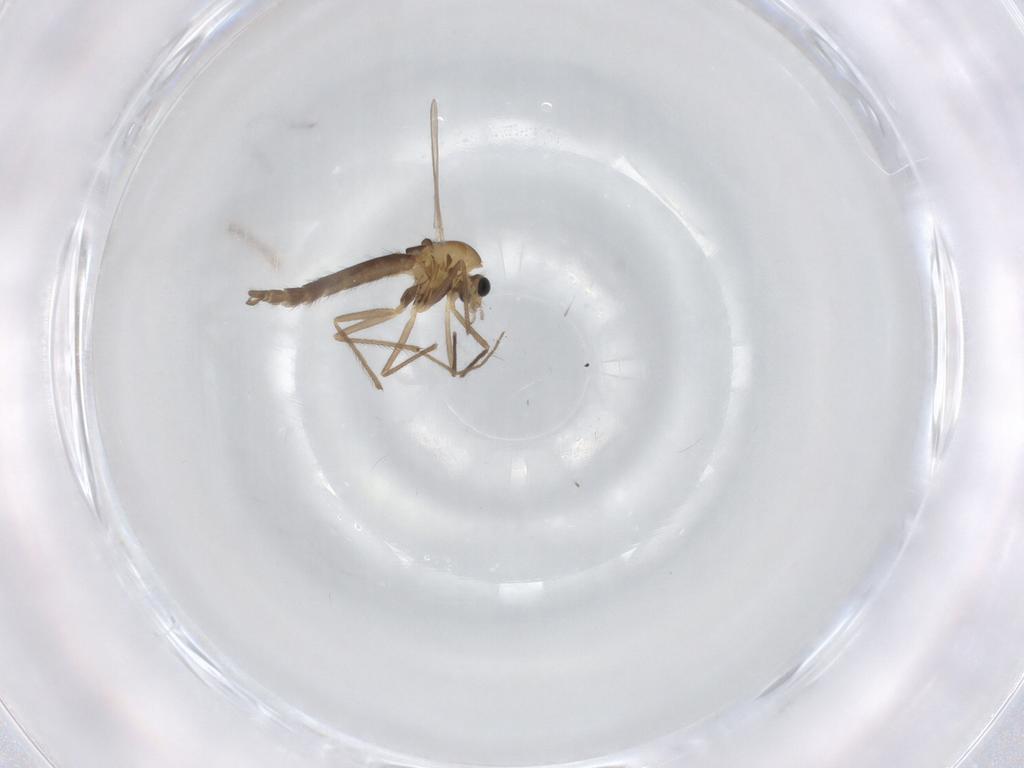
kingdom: Animalia
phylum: Arthropoda
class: Insecta
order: Diptera
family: Chironomidae
